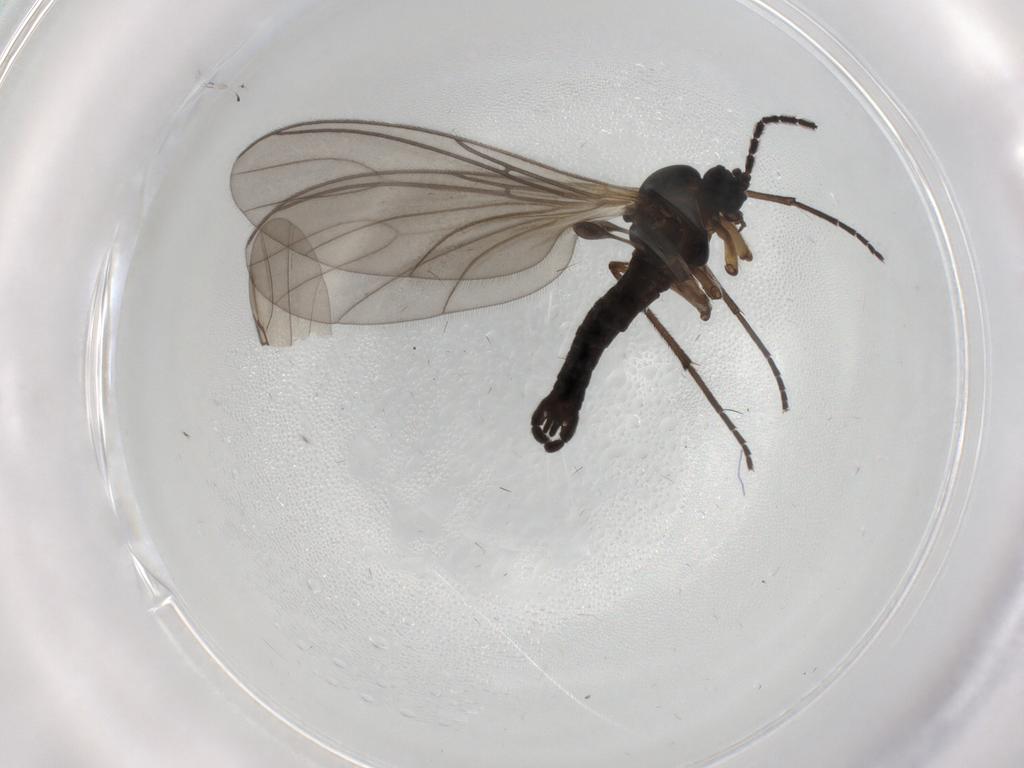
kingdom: Animalia
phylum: Arthropoda
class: Insecta
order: Diptera
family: Sciaridae
